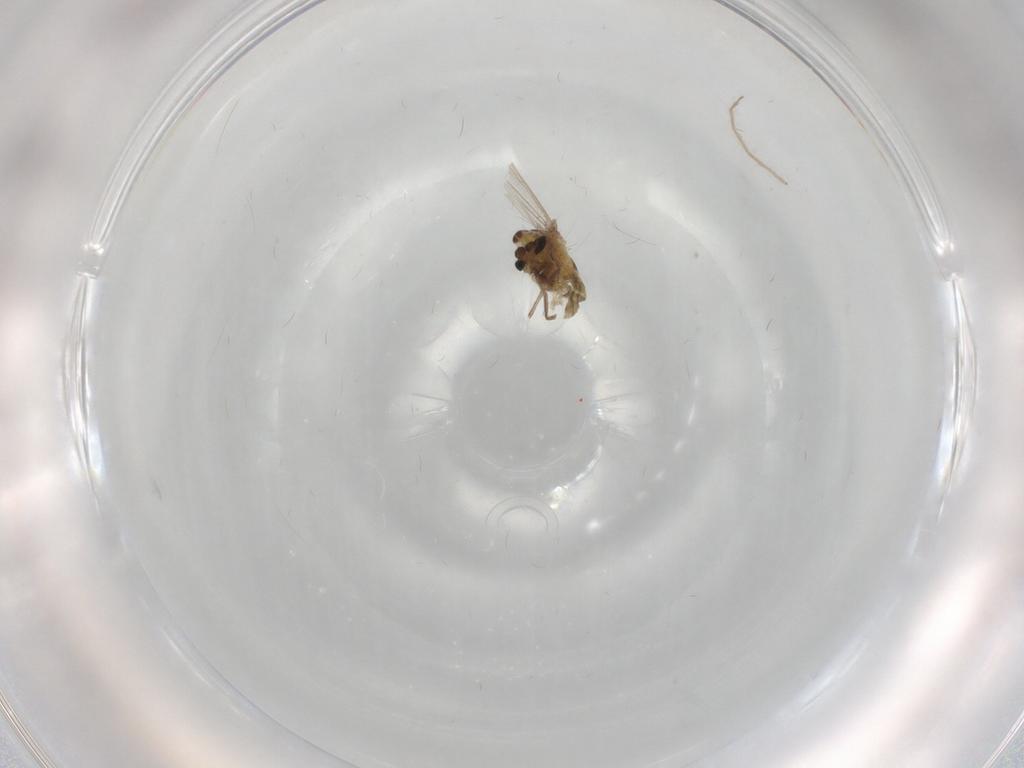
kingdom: Animalia
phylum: Arthropoda
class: Insecta
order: Diptera
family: Chironomidae
